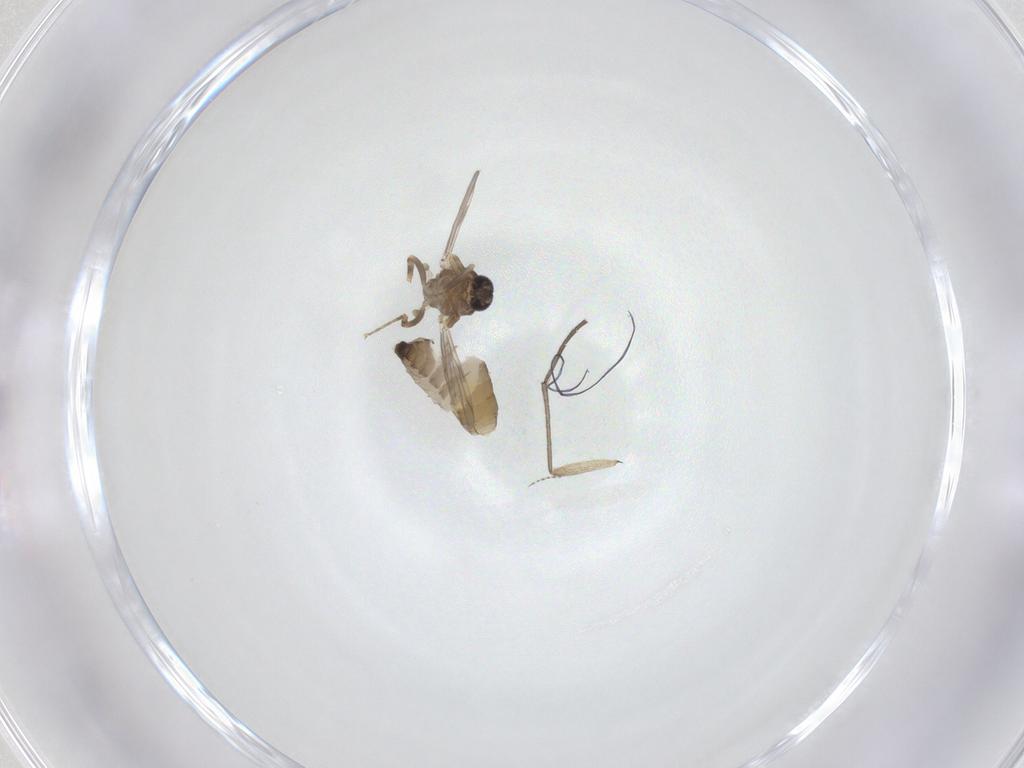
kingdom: Animalia
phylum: Arthropoda
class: Insecta
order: Diptera
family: Ceratopogonidae
